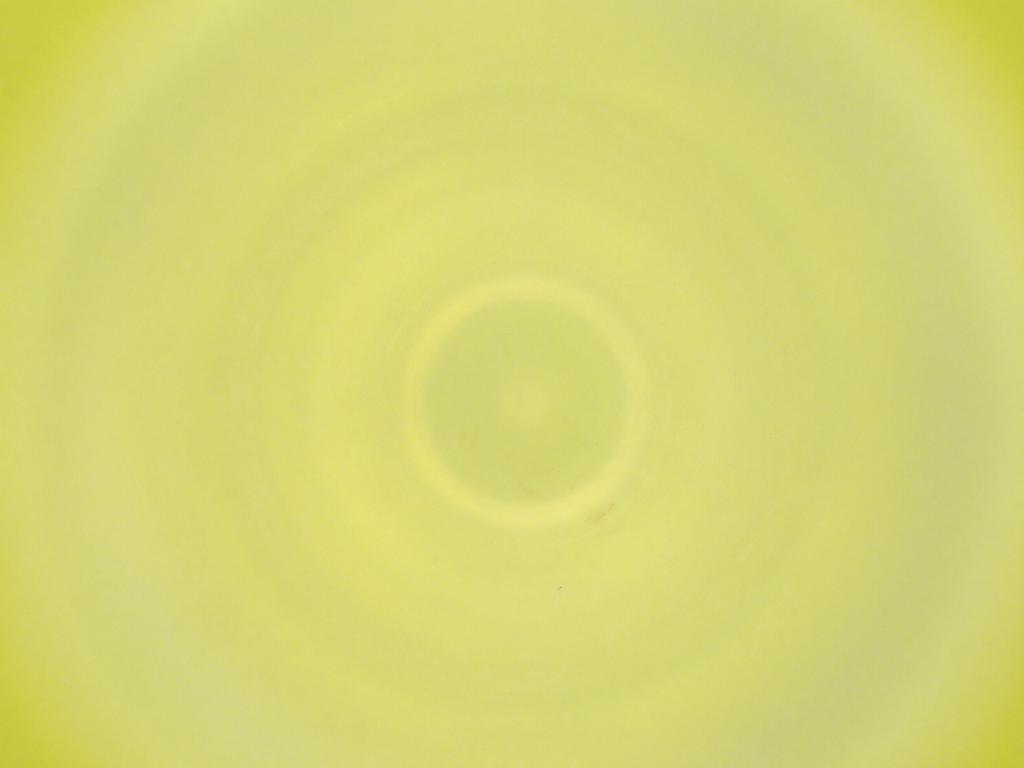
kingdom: Animalia
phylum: Arthropoda
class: Insecta
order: Diptera
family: Cecidomyiidae
